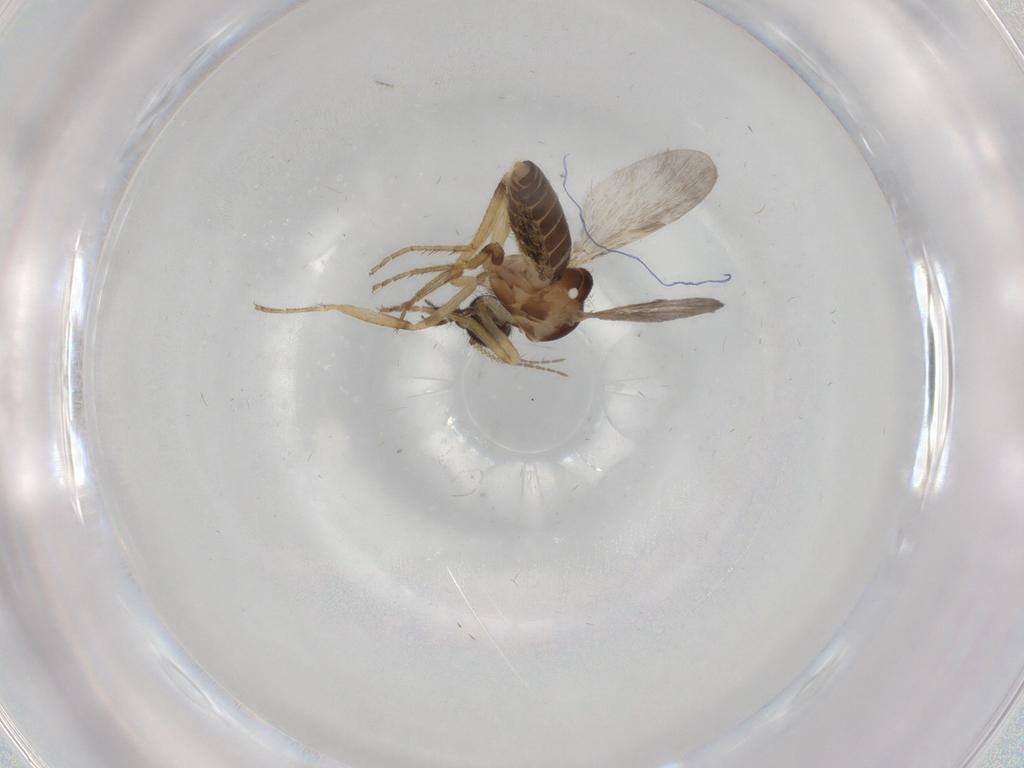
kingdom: Animalia
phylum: Arthropoda
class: Insecta
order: Diptera
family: Ceratopogonidae
